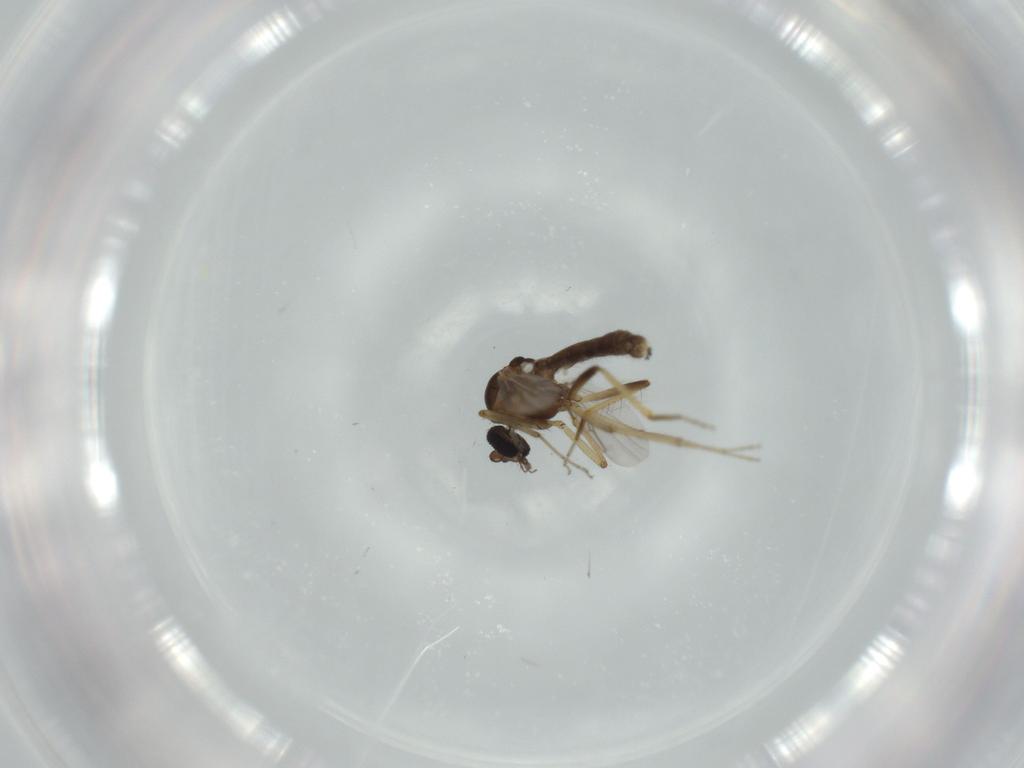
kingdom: Animalia
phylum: Arthropoda
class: Insecta
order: Diptera
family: Ceratopogonidae
